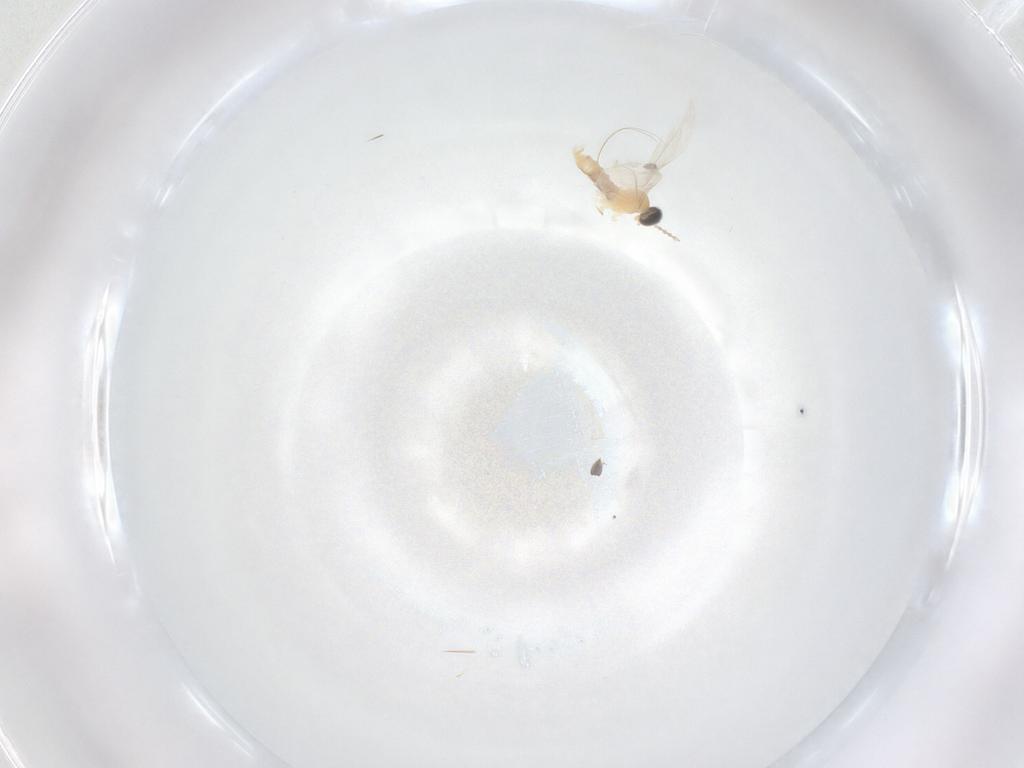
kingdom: Animalia
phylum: Arthropoda
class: Insecta
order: Diptera
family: Cecidomyiidae
